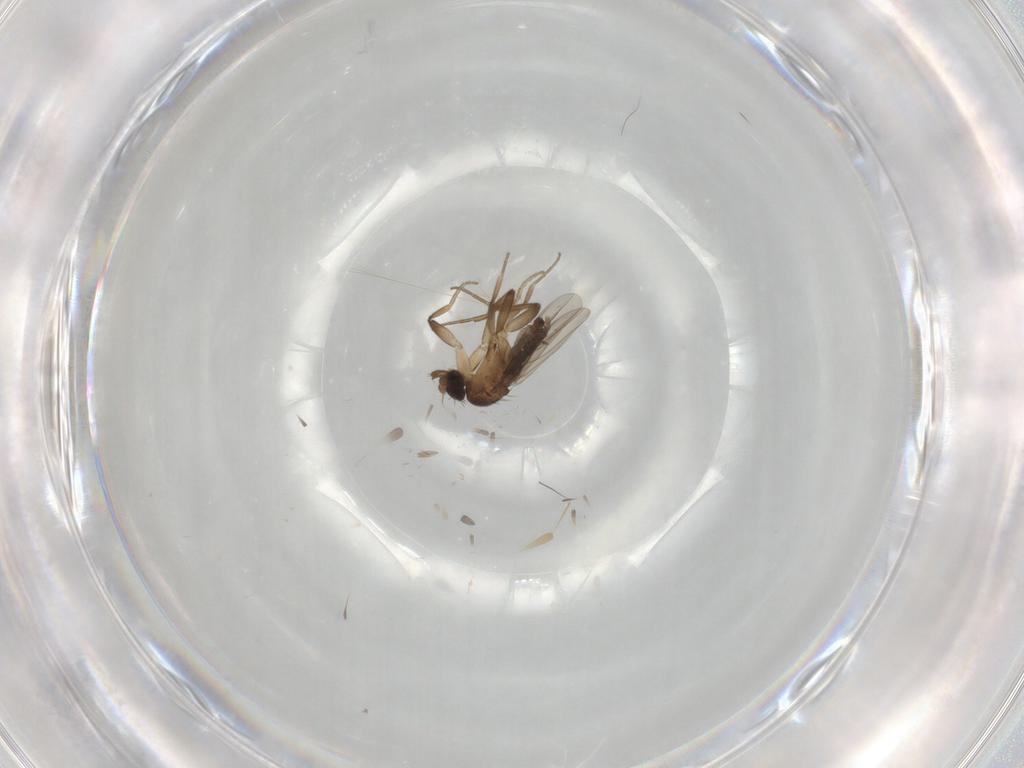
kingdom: Animalia
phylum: Arthropoda
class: Insecta
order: Diptera
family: Phoridae
